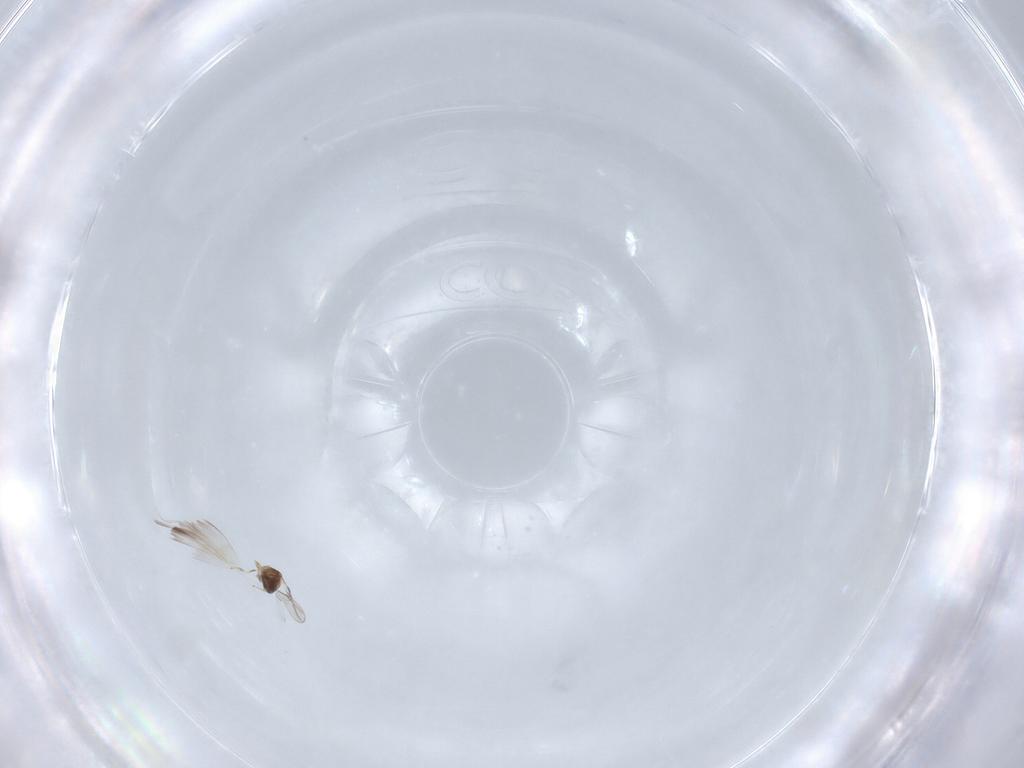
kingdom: Animalia
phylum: Arthropoda
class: Insecta
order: Hymenoptera
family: Trichogrammatidae
